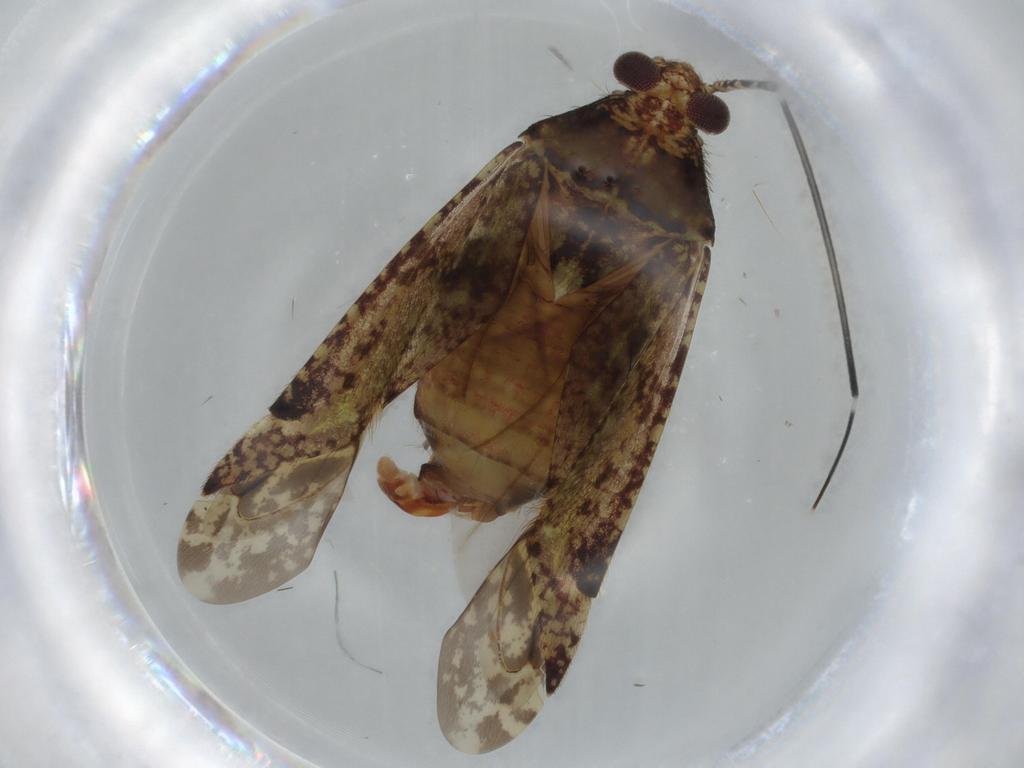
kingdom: Animalia
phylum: Arthropoda
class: Insecta
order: Hemiptera
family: Miridae
